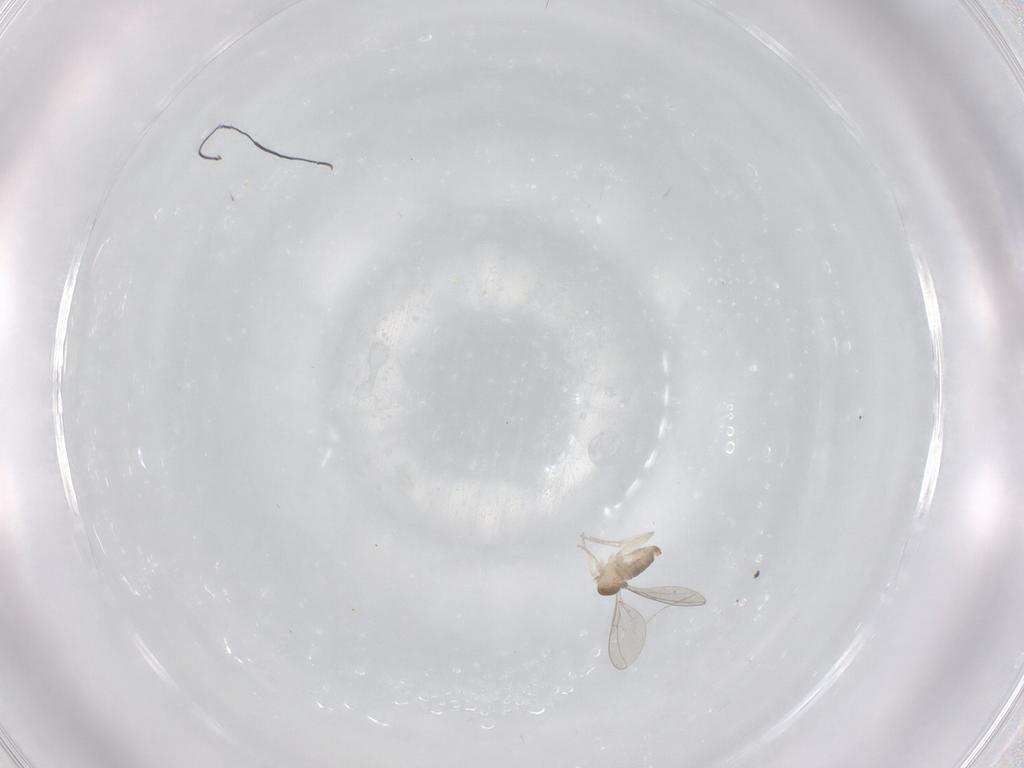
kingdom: Animalia
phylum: Arthropoda
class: Insecta
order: Diptera
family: Cecidomyiidae
